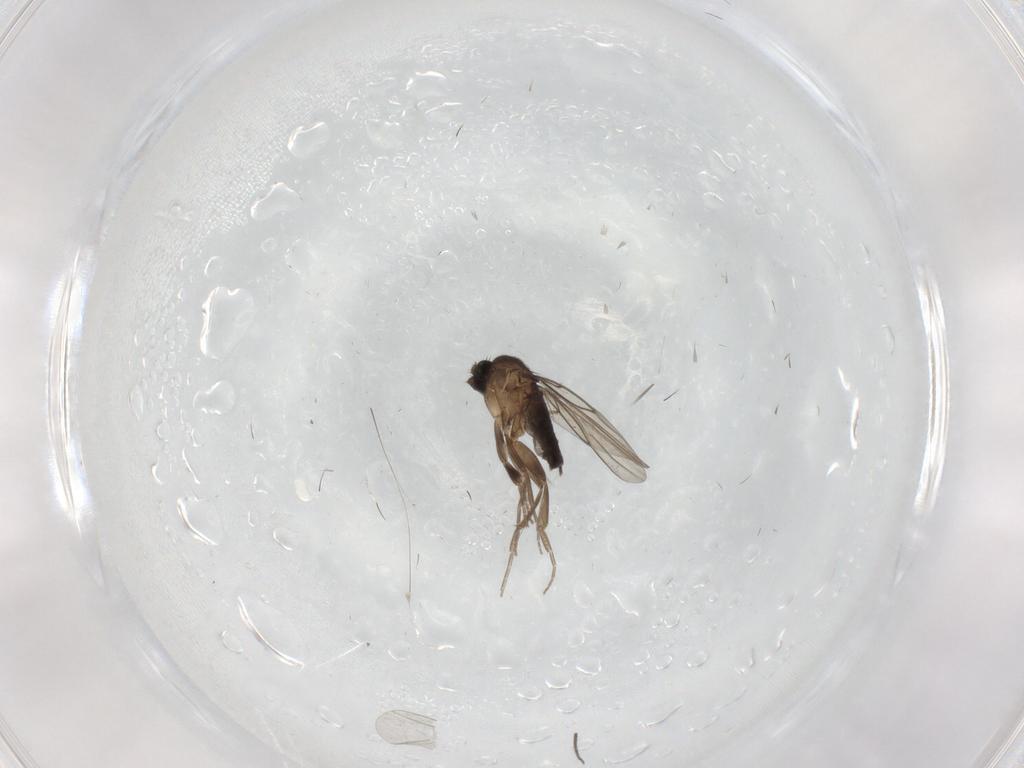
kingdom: Animalia
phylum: Arthropoda
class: Insecta
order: Diptera
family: Phoridae
